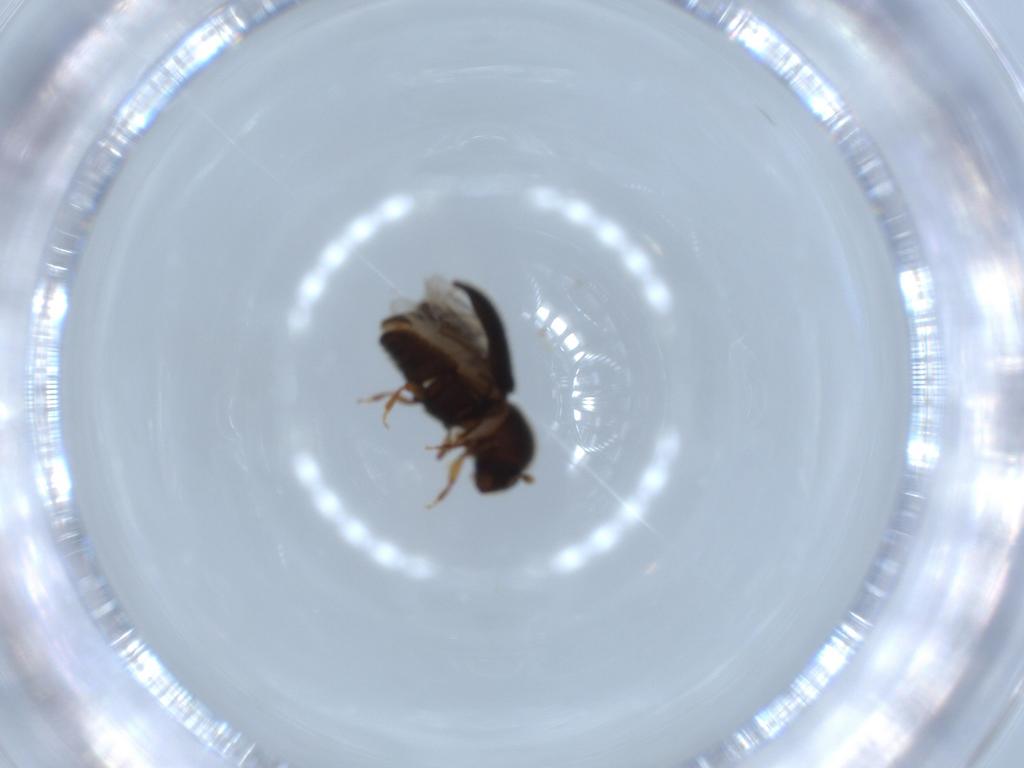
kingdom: Animalia
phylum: Arthropoda
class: Insecta
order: Coleoptera
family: Curculionidae
